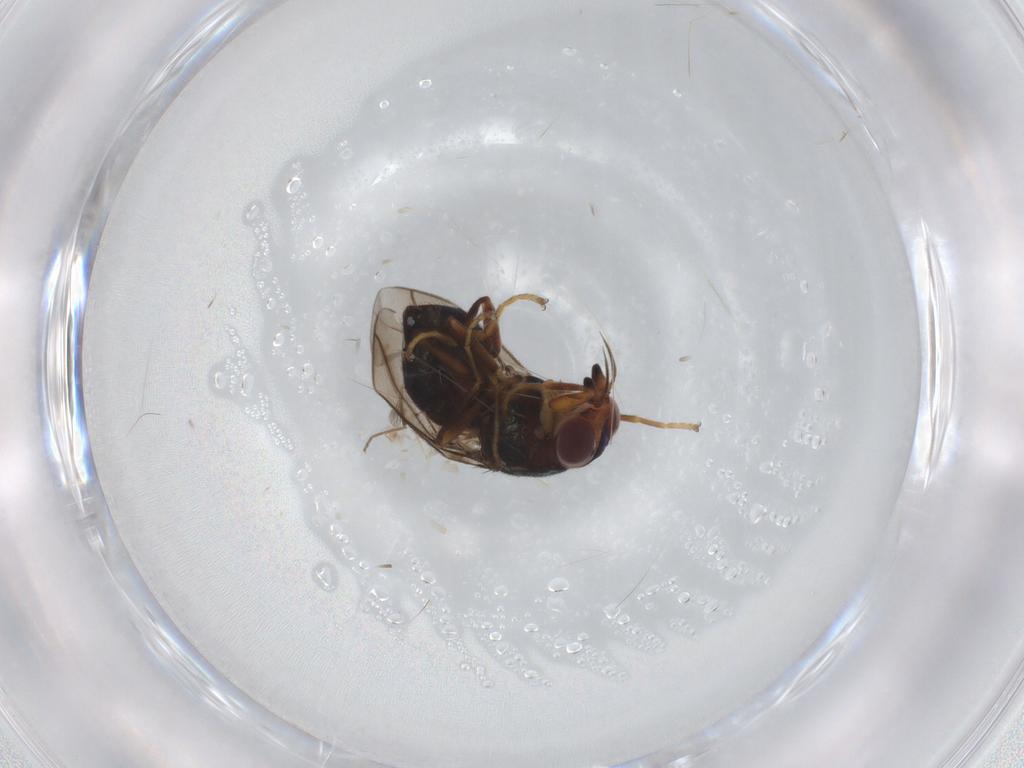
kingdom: Animalia
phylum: Arthropoda
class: Insecta
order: Diptera
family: Chloropidae
